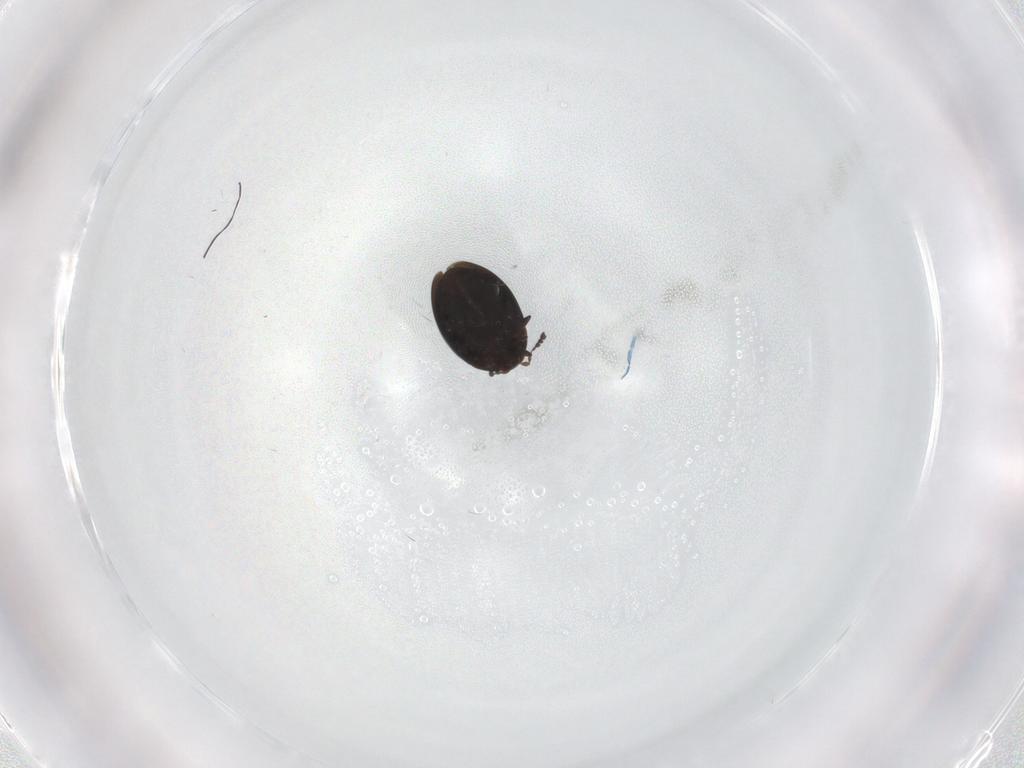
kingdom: Animalia
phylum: Arthropoda
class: Insecta
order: Coleoptera
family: Corylophidae
